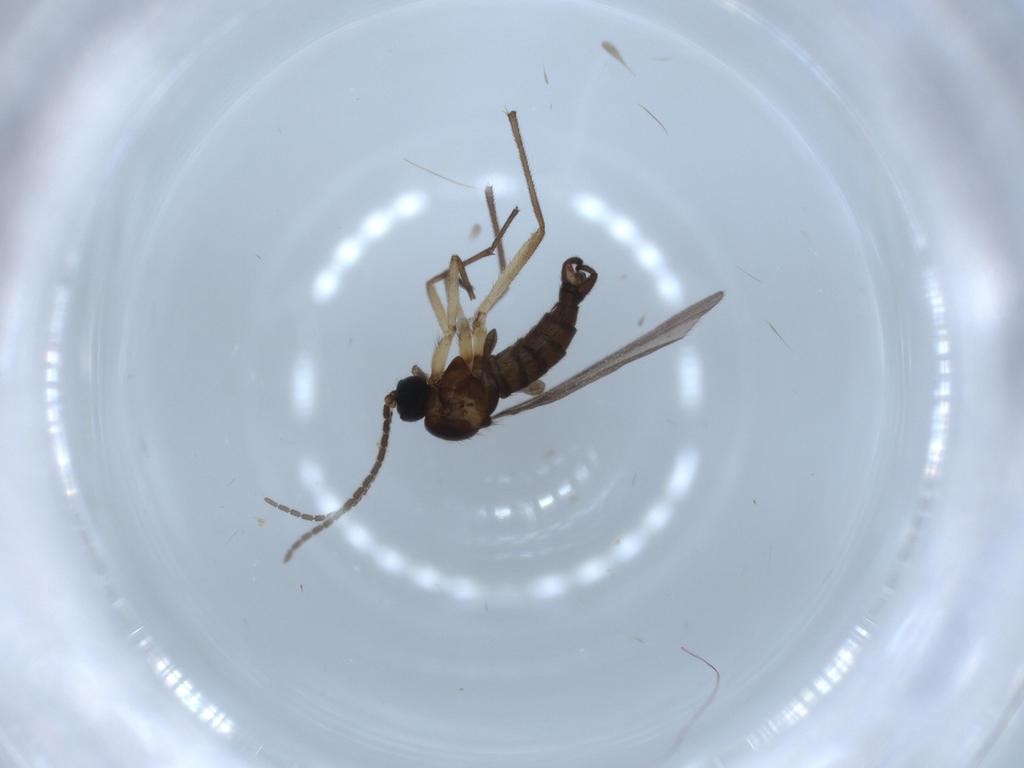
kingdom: Animalia
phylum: Arthropoda
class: Insecta
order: Diptera
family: Sciaridae
